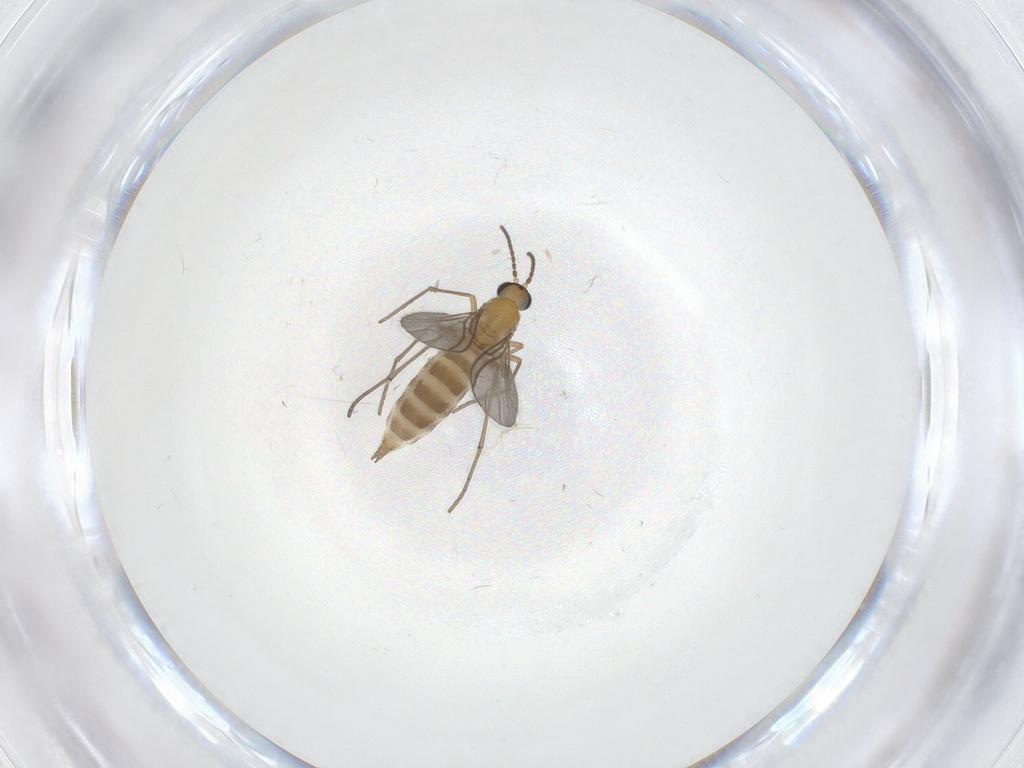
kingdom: Animalia
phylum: Arthropoda
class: Insecta
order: Diptera
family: Sciaridae
